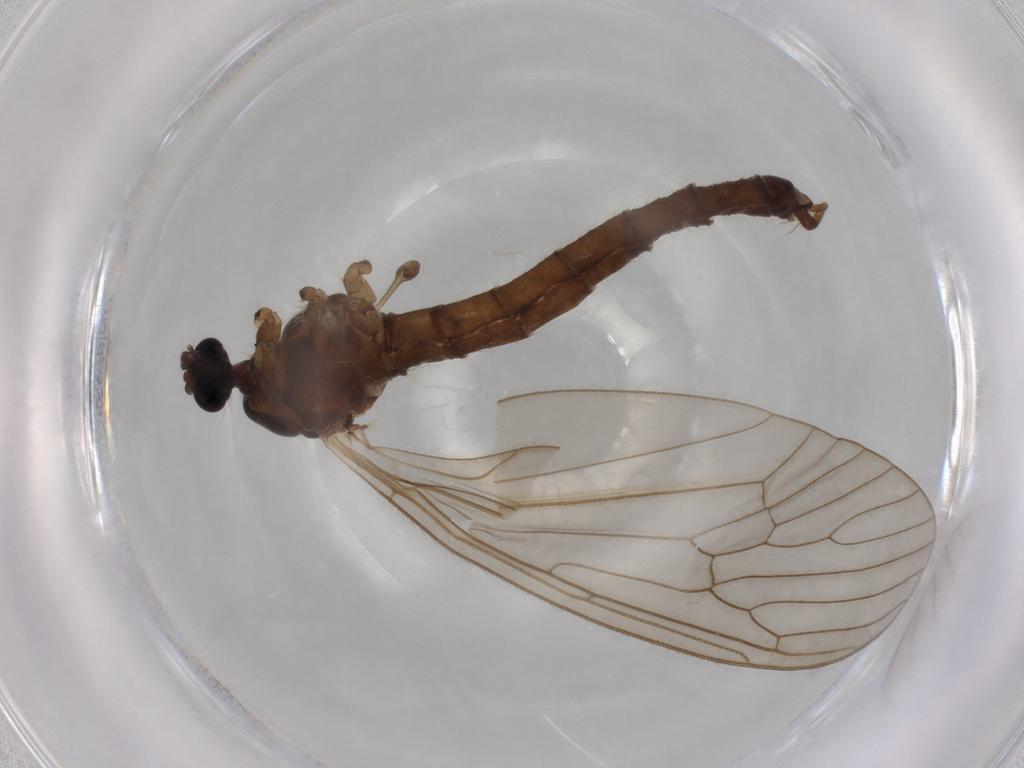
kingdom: Animalia
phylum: Arthropoda
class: Insecta
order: Diptera
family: Trichoceridae
